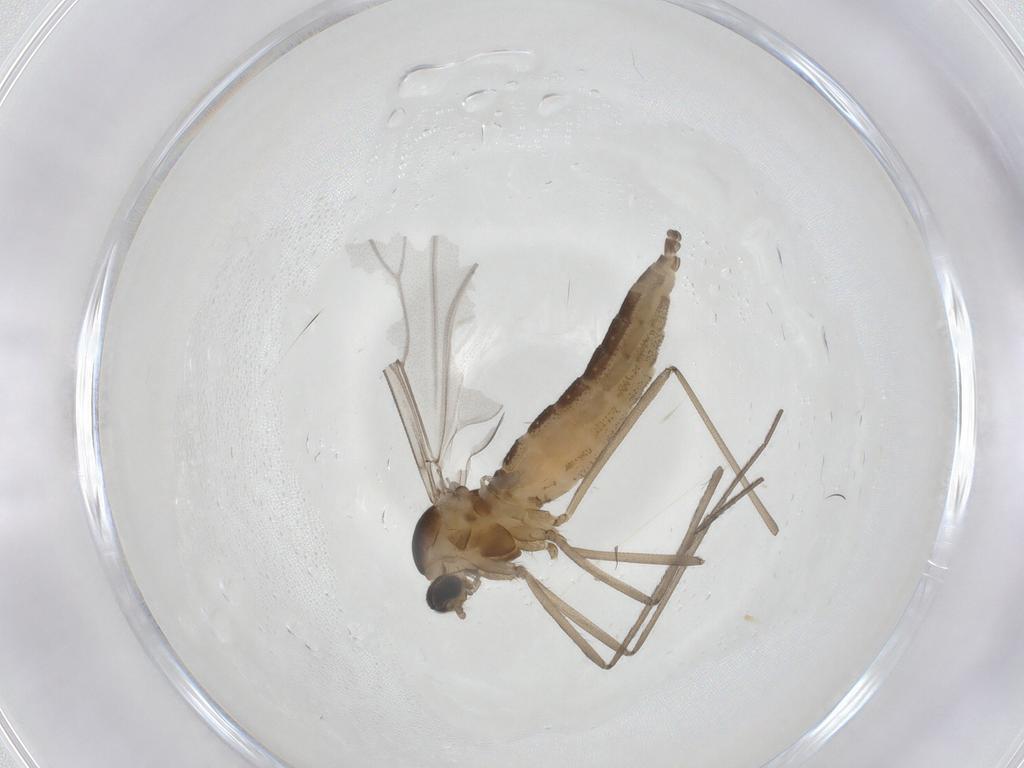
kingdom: Animalia
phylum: Arthropoda
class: Insecta
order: Diptera
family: Cecidomyiidae
